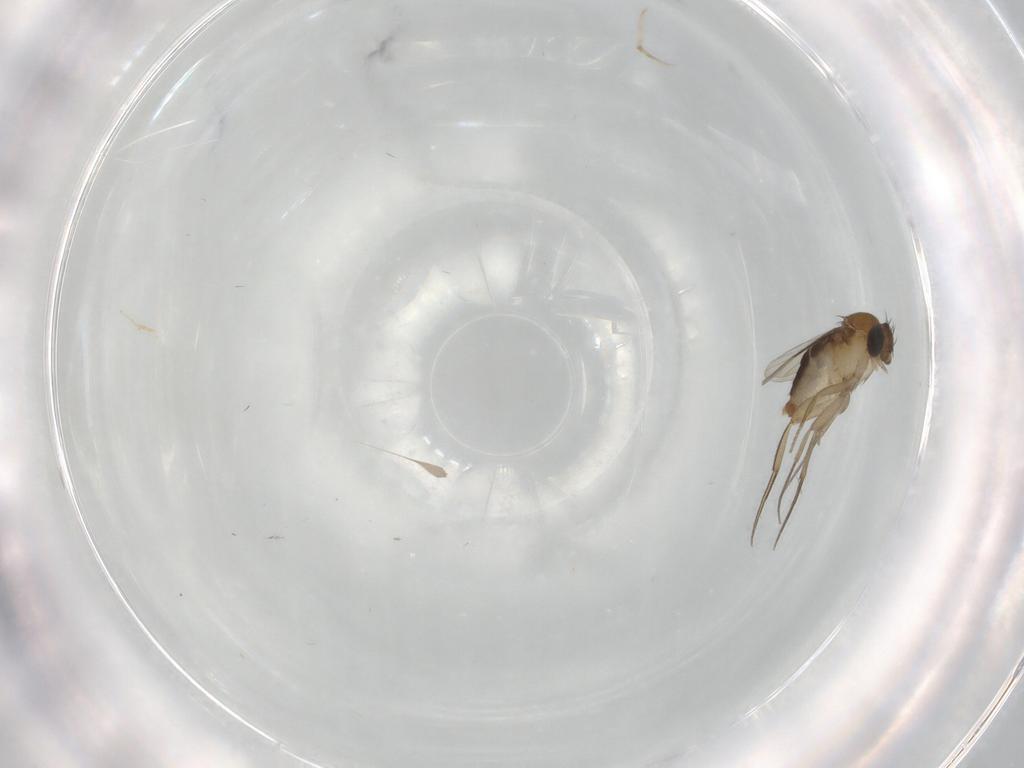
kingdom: Animalia
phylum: Arthropoda
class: Insecta
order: Diptera
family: Phoridae
